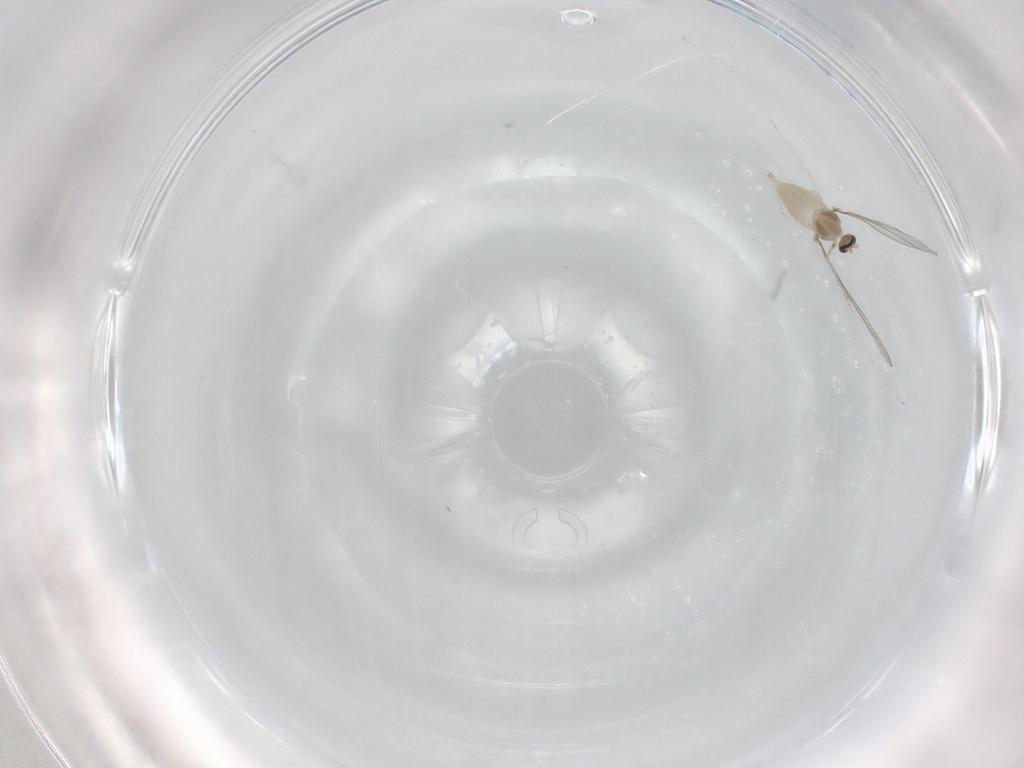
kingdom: Animalia
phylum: Arthropoda
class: Insecta
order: Diptera
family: Cecidomyiidae
